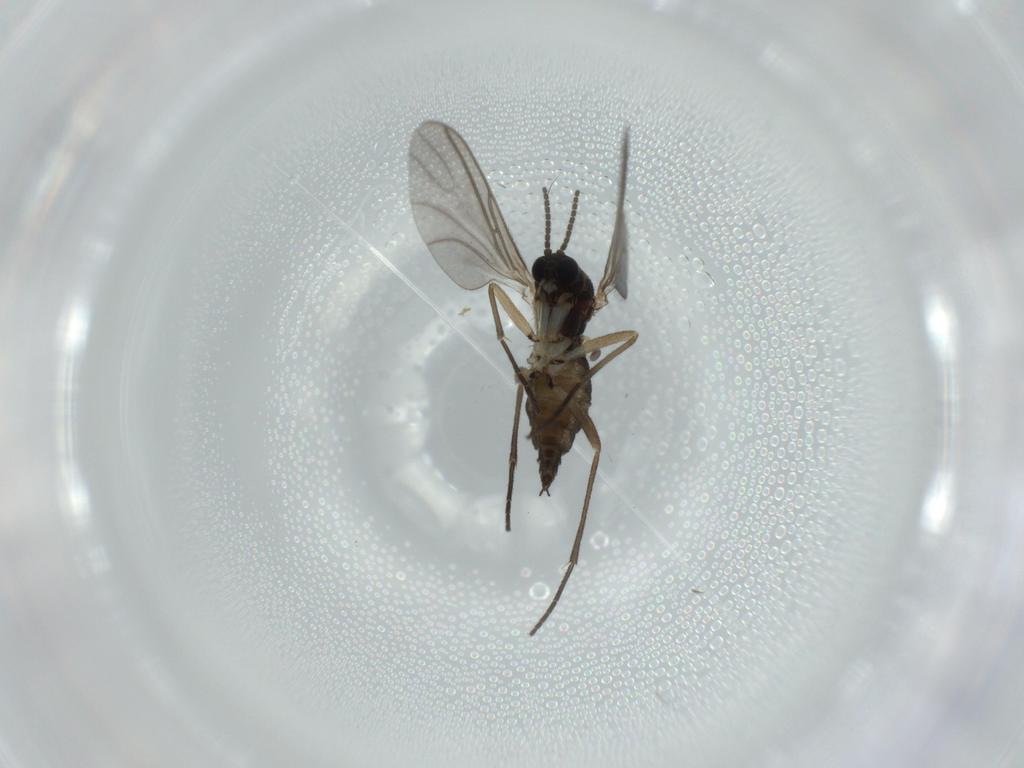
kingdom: Animalia
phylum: Arthropoda
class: Insecta
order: Diptera
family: Sciaridae
